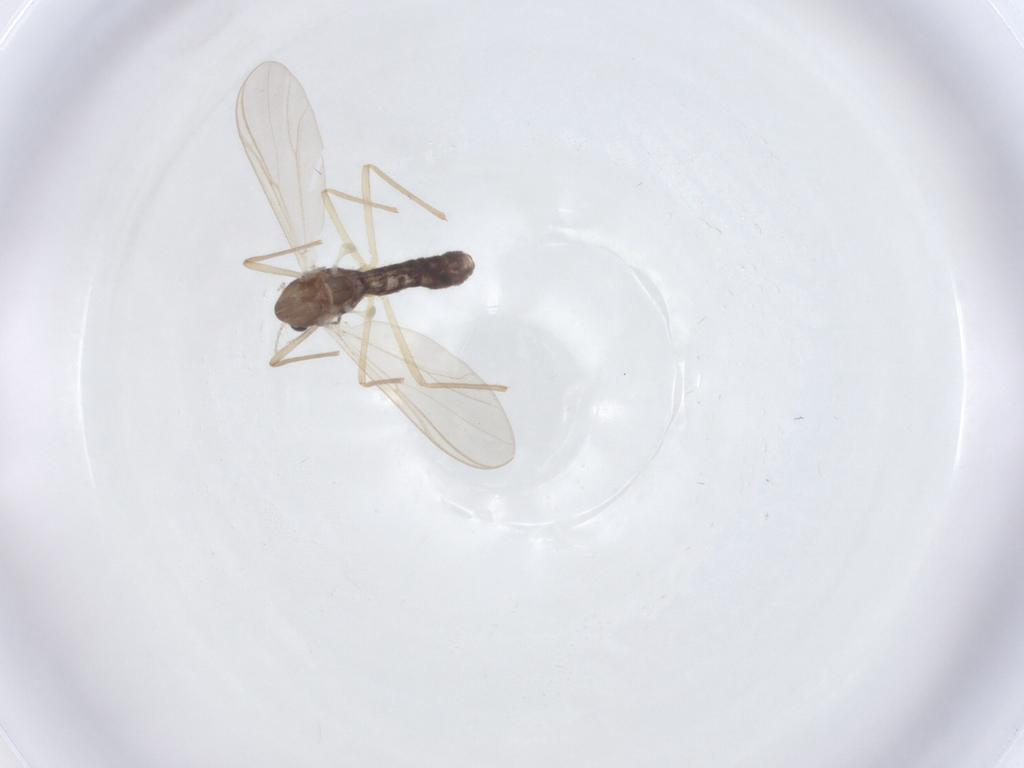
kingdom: Animalia
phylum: Arthropoda
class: Insecta
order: Diptera
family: Chironomidae
